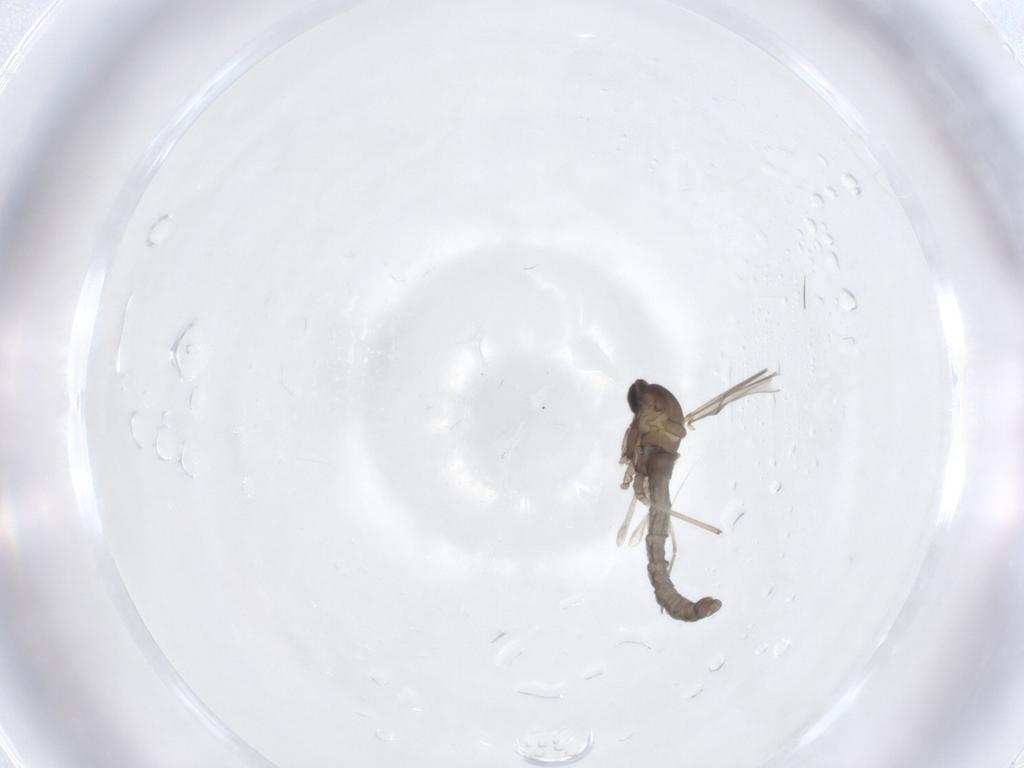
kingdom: Animalia
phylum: Arthropoda
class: Insecta
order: Diptera
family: Cecidomyiidae
